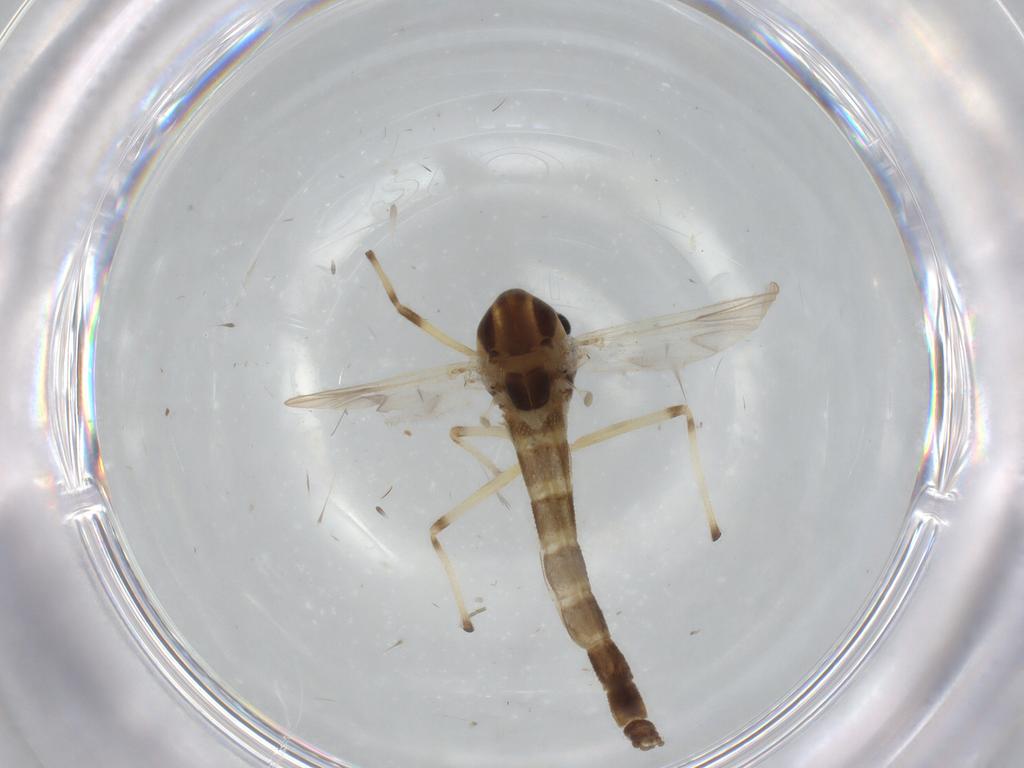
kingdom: Animalia
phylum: Arthropoda
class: Insecta
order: Diptera
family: Chironomidae
